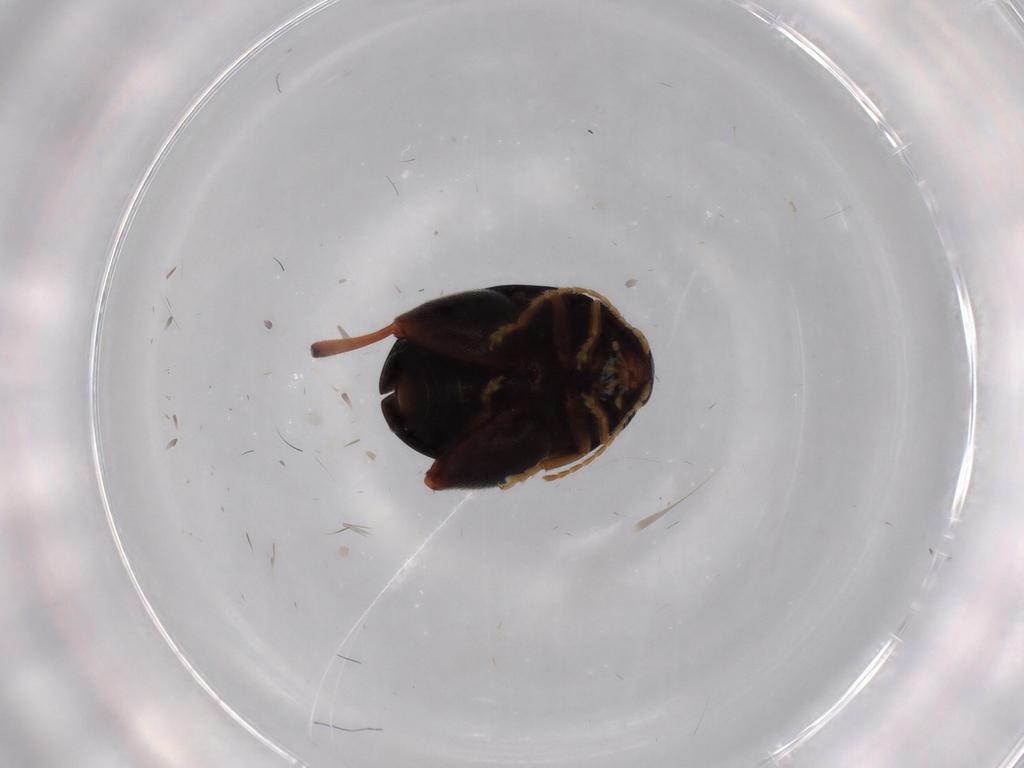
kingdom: Animalia
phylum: Arthropoda
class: Insecta
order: Coleoptera
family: Chrysomelidae
